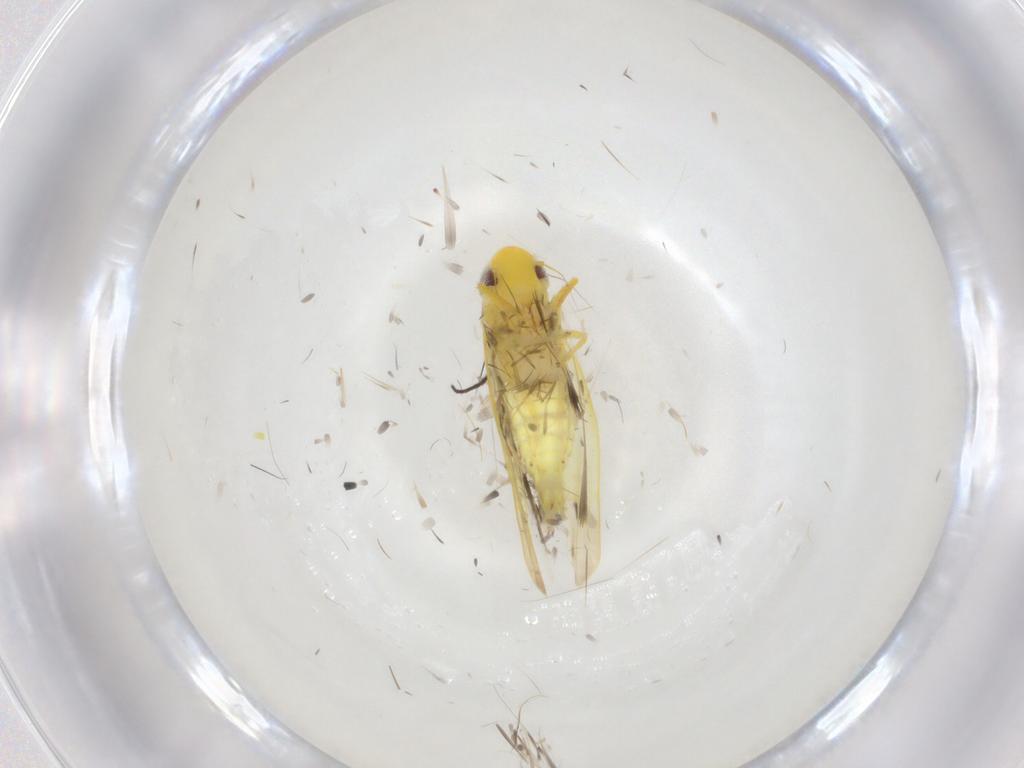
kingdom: Animalia
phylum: Arthropoda
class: Insecta
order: Hemiptera
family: Cicadellidae
